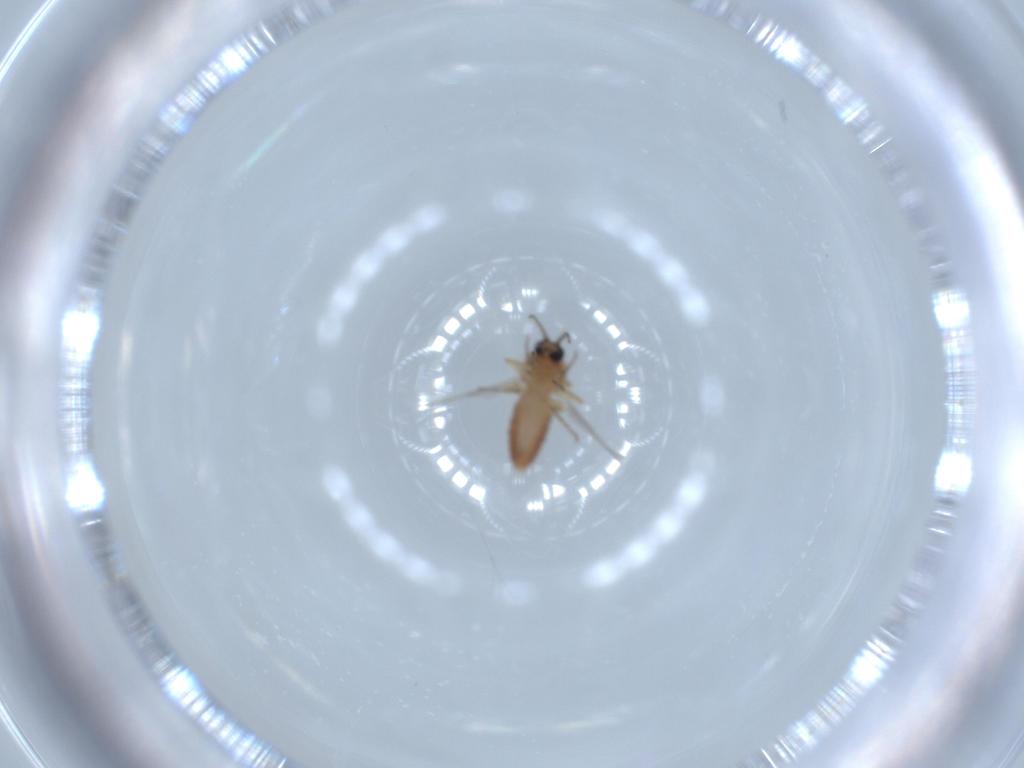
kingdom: Animalia
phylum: Arthropoda
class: Insecta
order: Diptera
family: Cecidomyiidae
